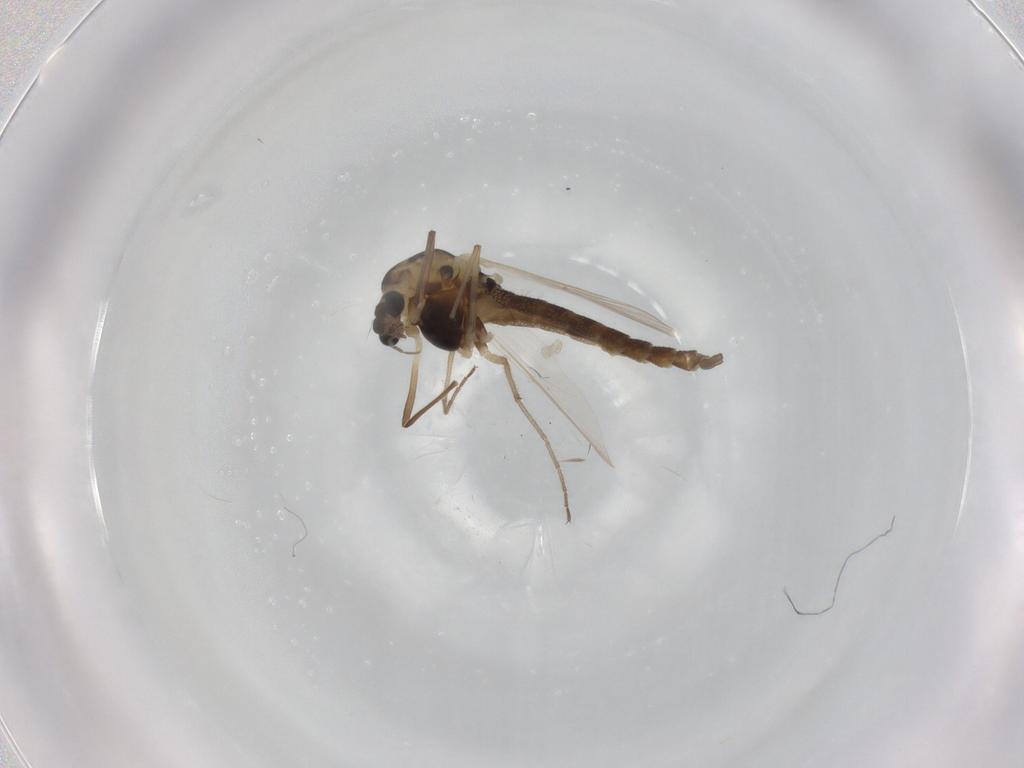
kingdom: Animalia
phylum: Arthropoda
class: Insecta
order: Diptera
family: Chironomidae
